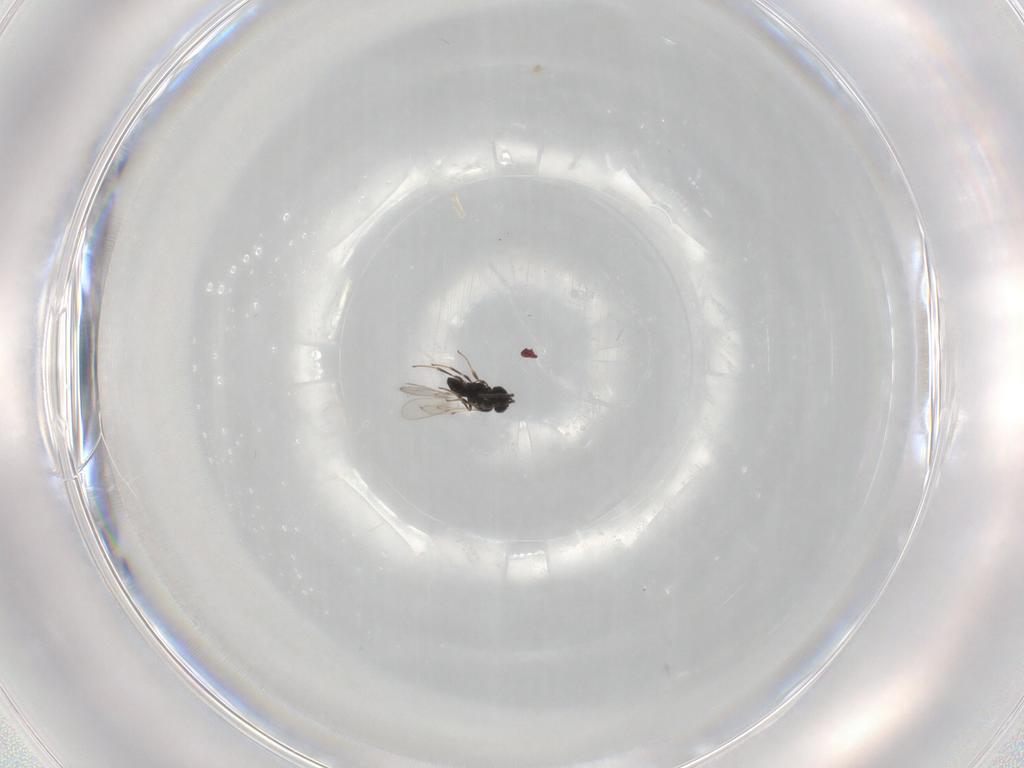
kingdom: Animalia
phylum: Arthropoda
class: Insecta
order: Hymenoptera
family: Scelionidae
